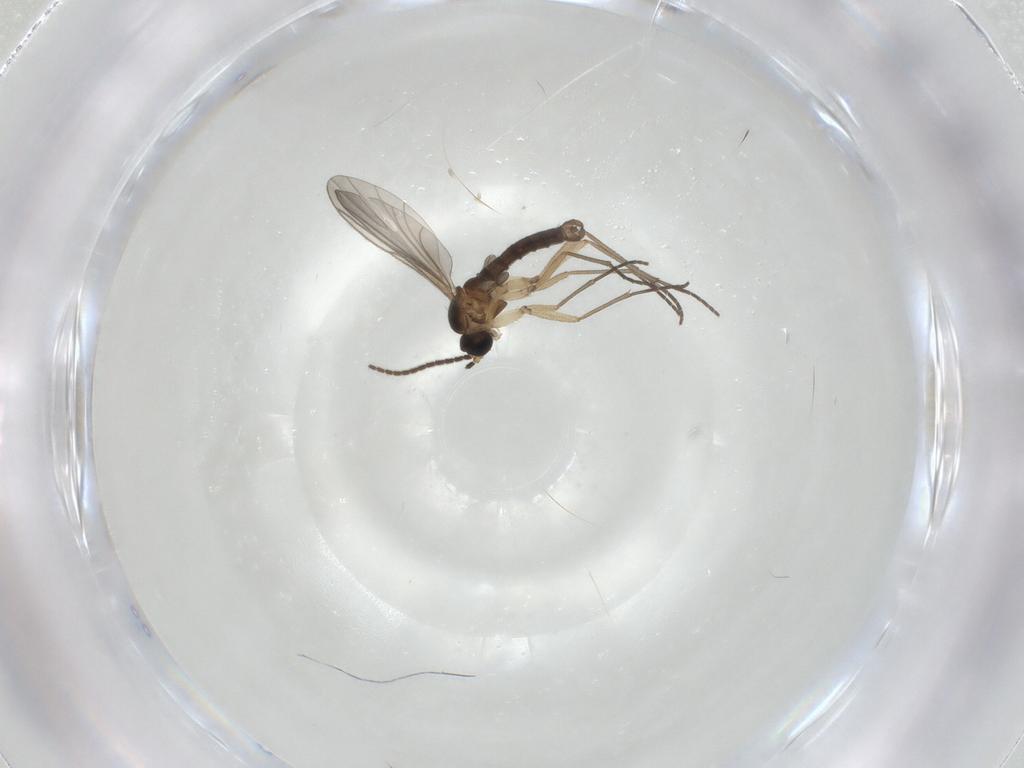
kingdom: Animalia
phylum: Arthropoda
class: Insecta
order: Diptera
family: Sciaridae
